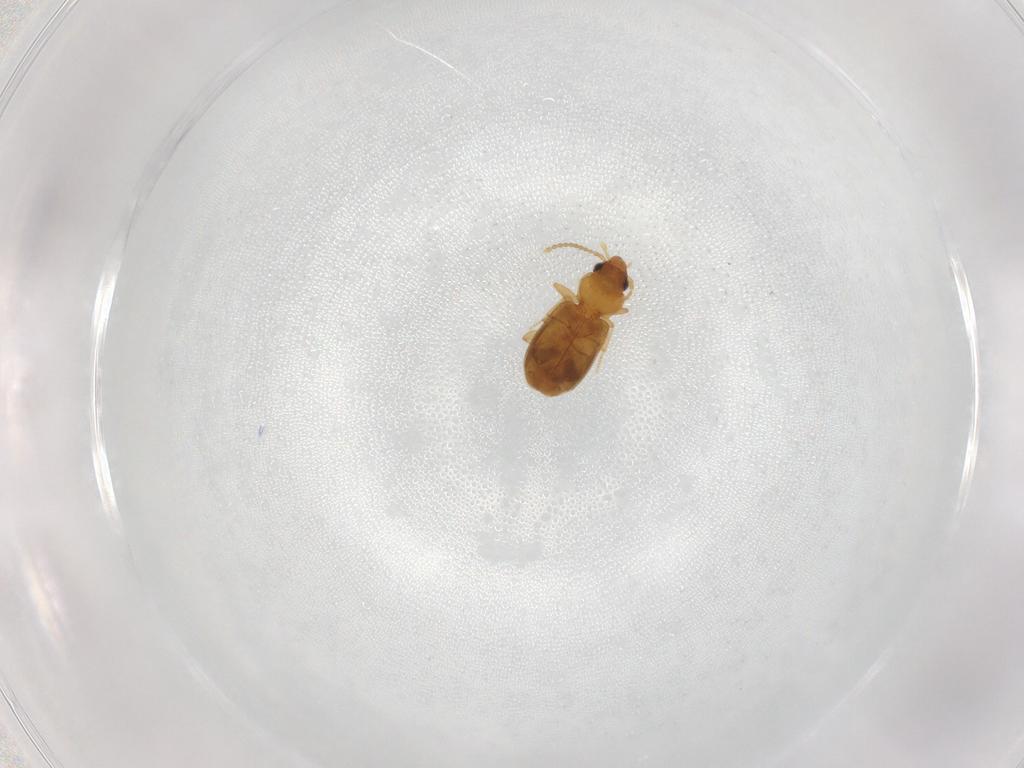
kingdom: Animalia
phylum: Arthropoda
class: Insecta
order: Coleoptera
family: Carabidae
